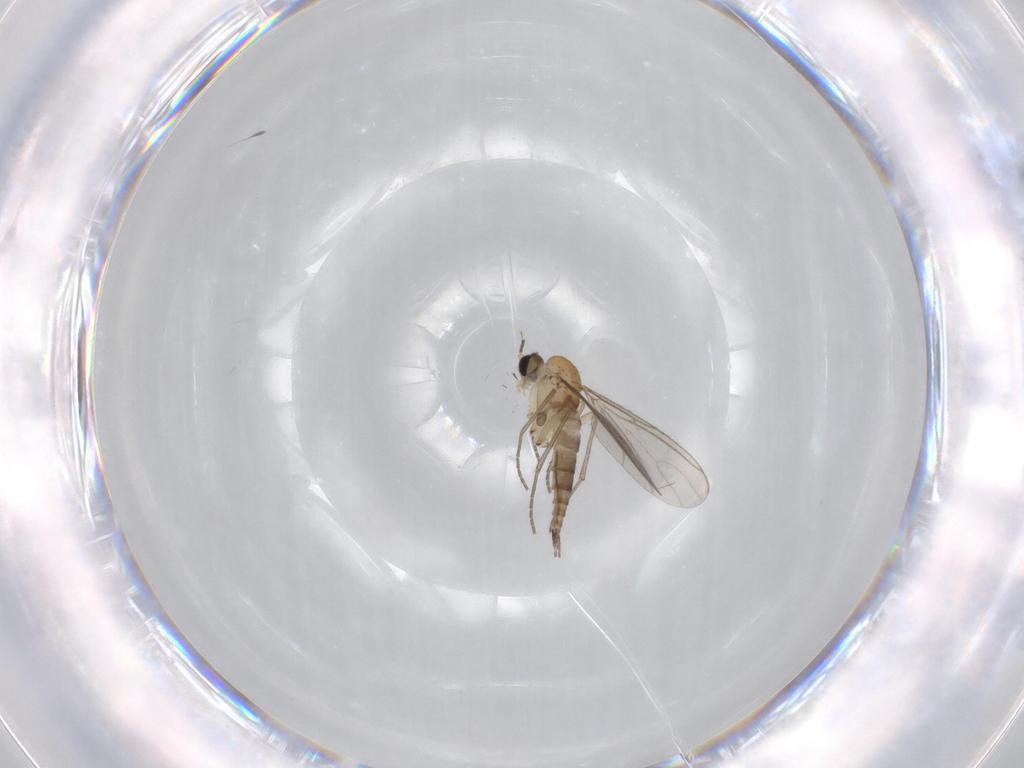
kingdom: Animalia
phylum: Arthropoda
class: Insecta
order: Diptera
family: Sciaridae
